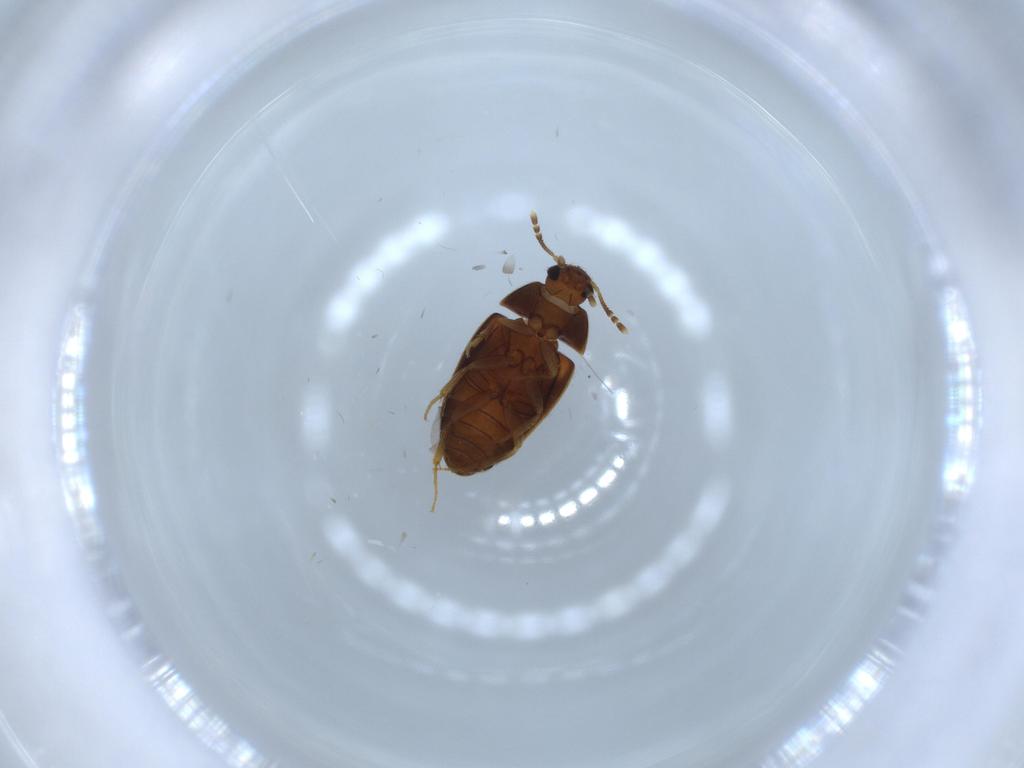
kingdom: Animalia
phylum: Arthropoda
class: Insecta
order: Coleoptera
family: Mycetophagidae
